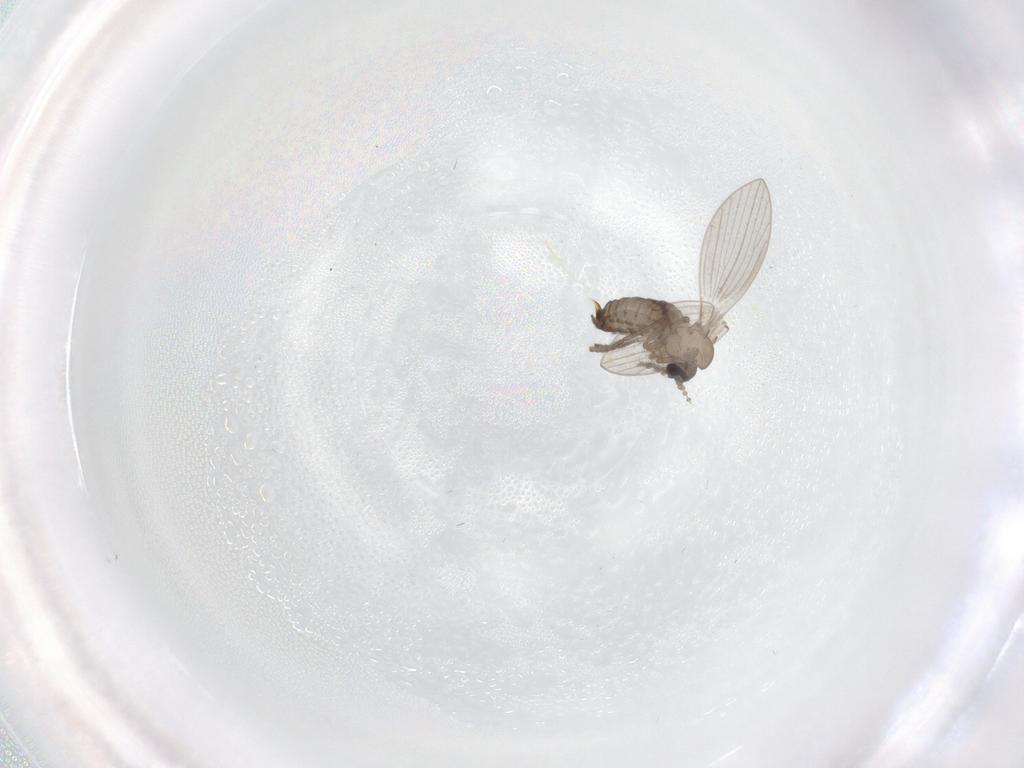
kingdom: Animalia
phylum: Arthropoda
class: Insecta
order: Diptera
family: Psychodidae
